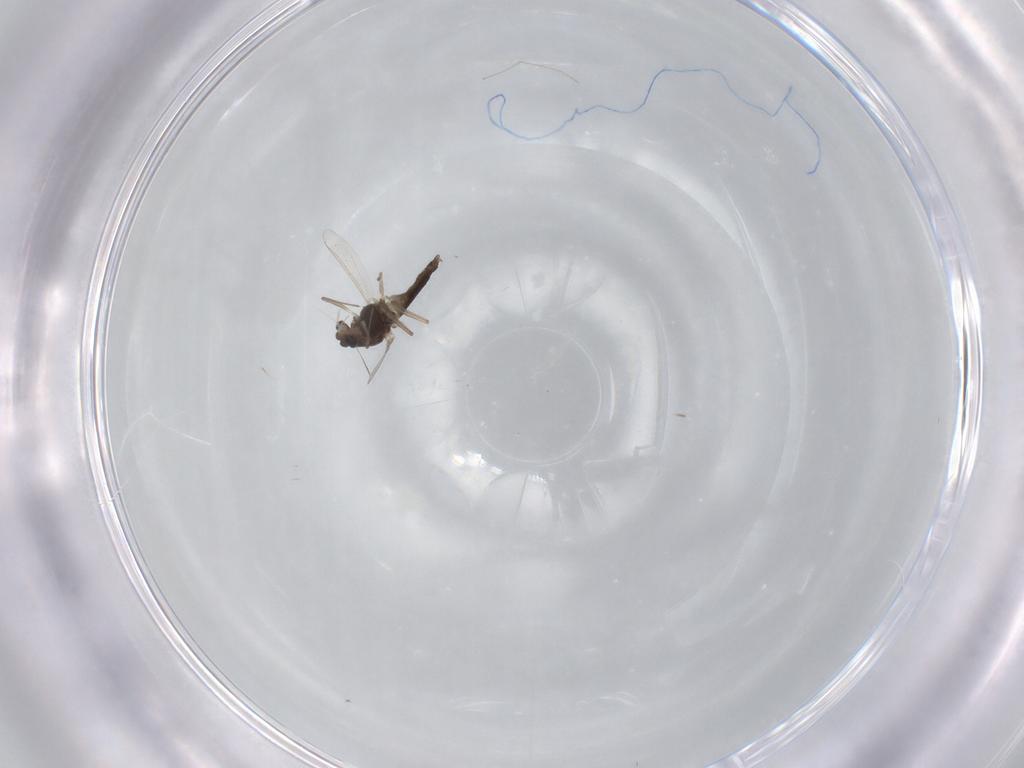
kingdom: Animalia
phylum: Arthropoda
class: Insecta
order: Diptera
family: Chironomidae
